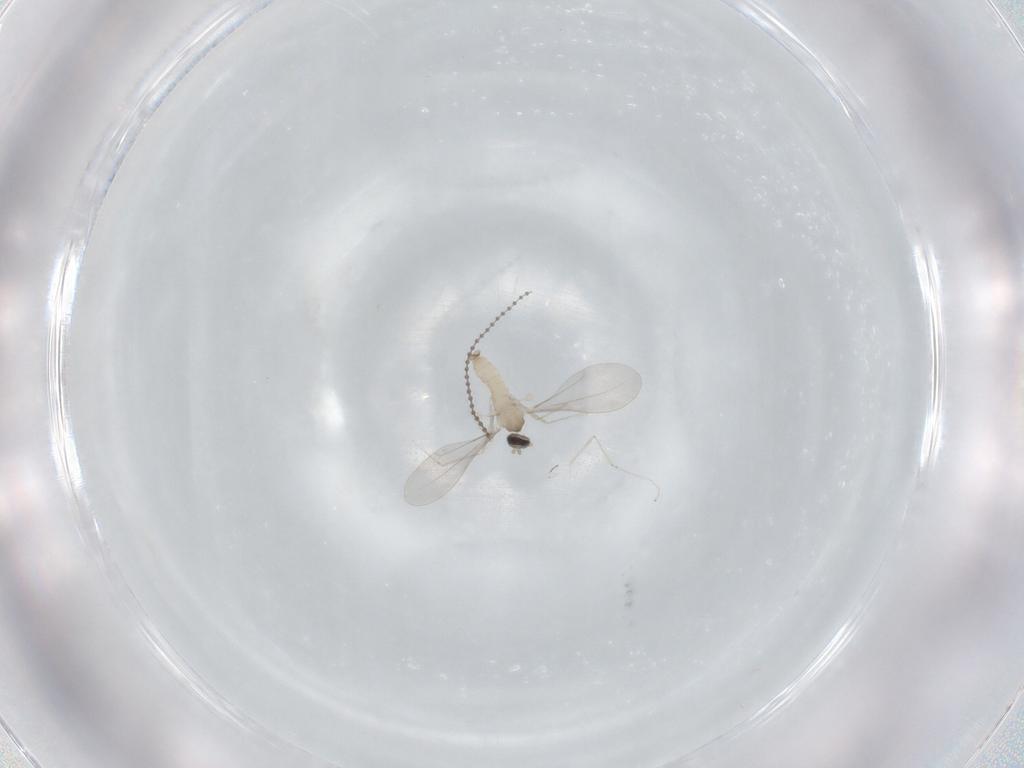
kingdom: Animalia
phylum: Arthropoda
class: Insecta
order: Diptera
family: Cecidomyiidae
